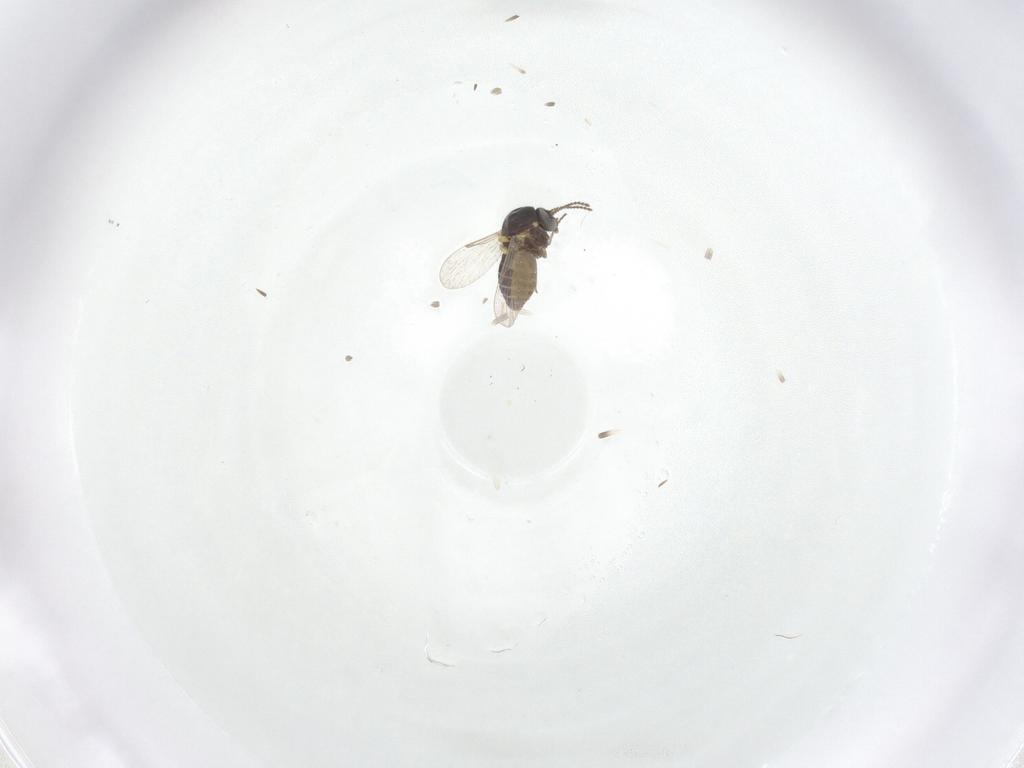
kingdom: Animalia
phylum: Arthropoda
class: Insecta
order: Diptera
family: Ceratopogonidae
